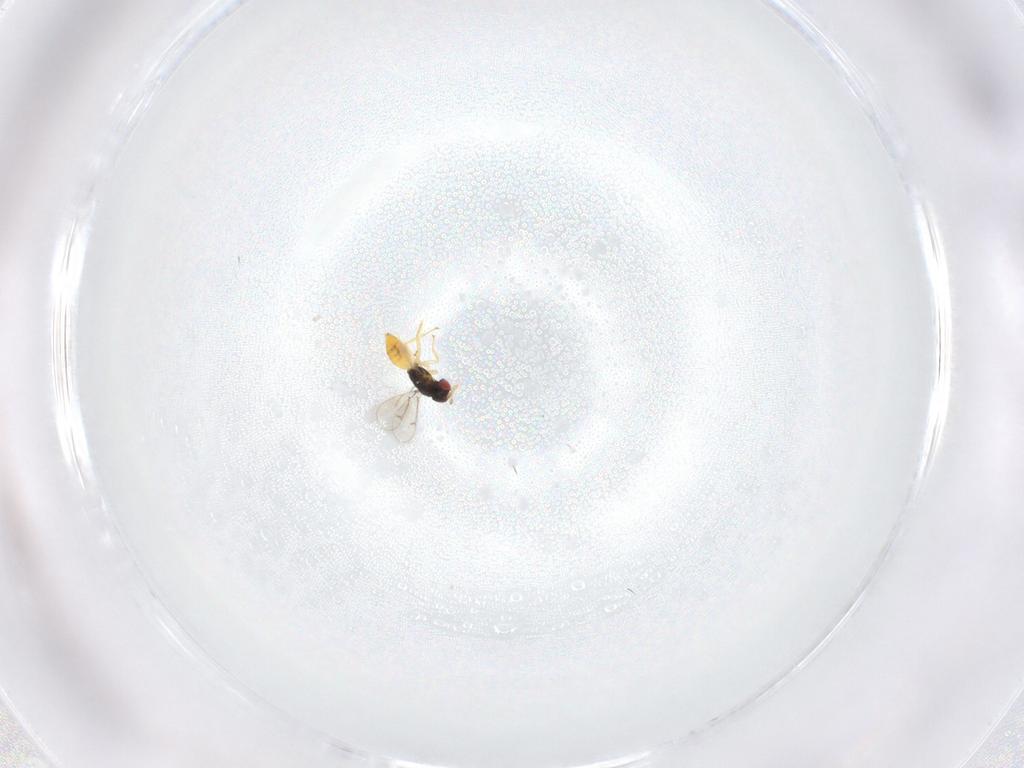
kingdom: Animalia
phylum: Arthropoda
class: Insecta
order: Hymenoptera
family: Eulophidae
